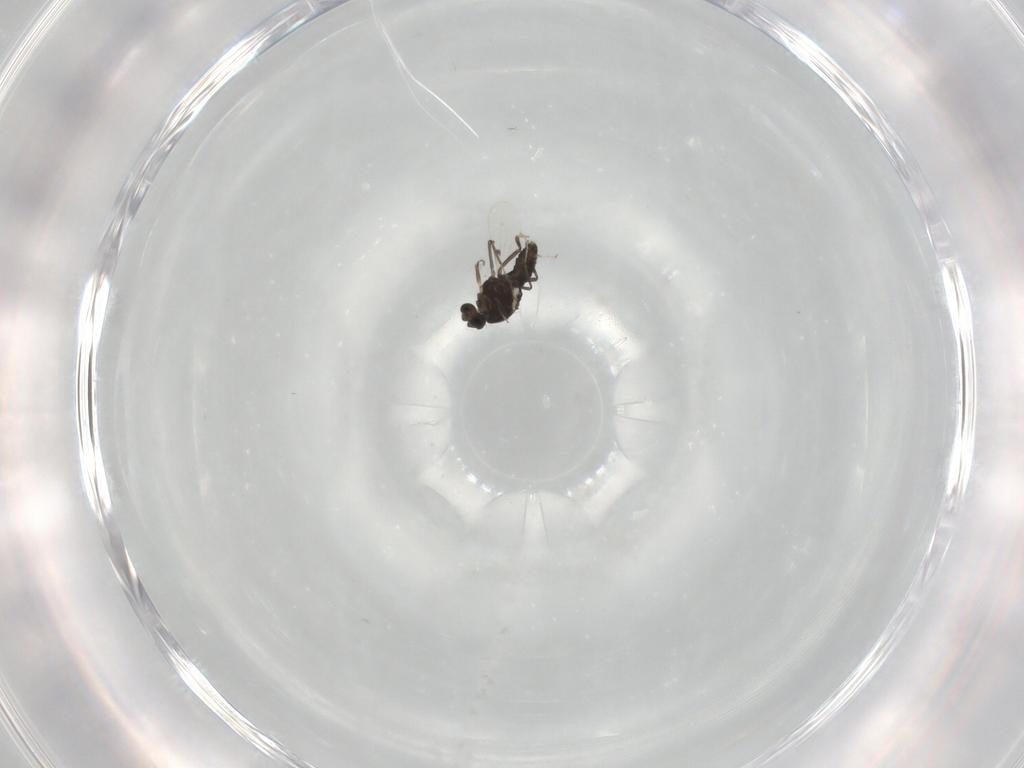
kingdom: Animalia
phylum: Arthropoda
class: Insecta
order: Diptera
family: Ceratopogonidae
